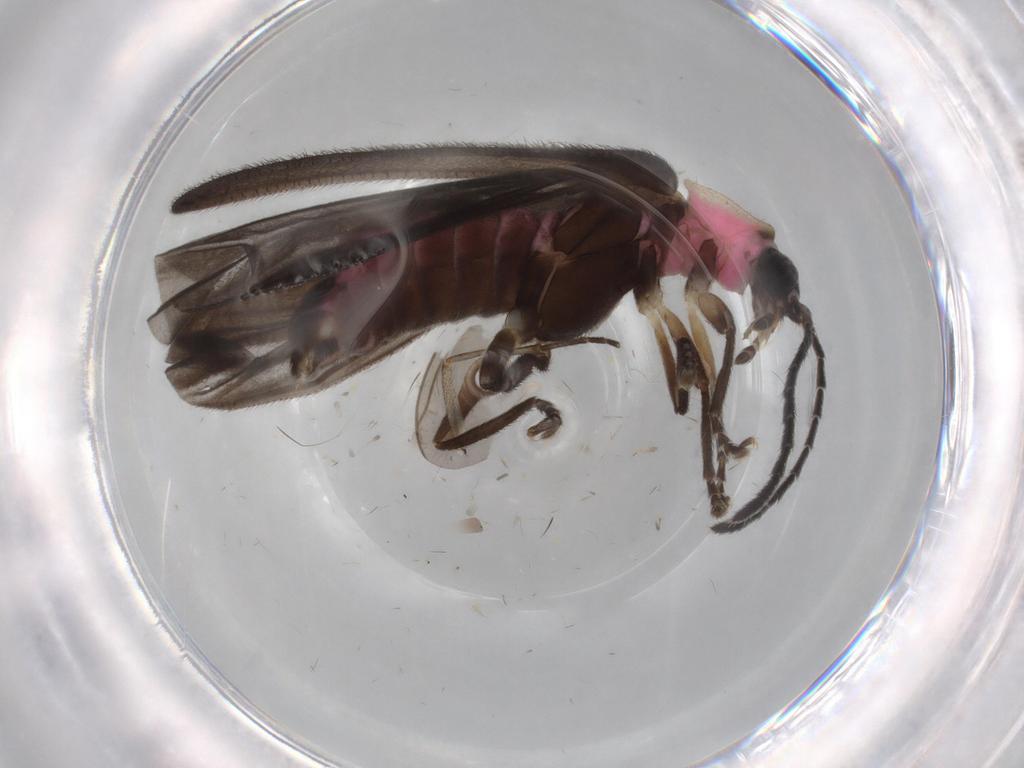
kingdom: Animalia
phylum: Arthropoda
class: Insecta
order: Coleoptera
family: Lampyridae
